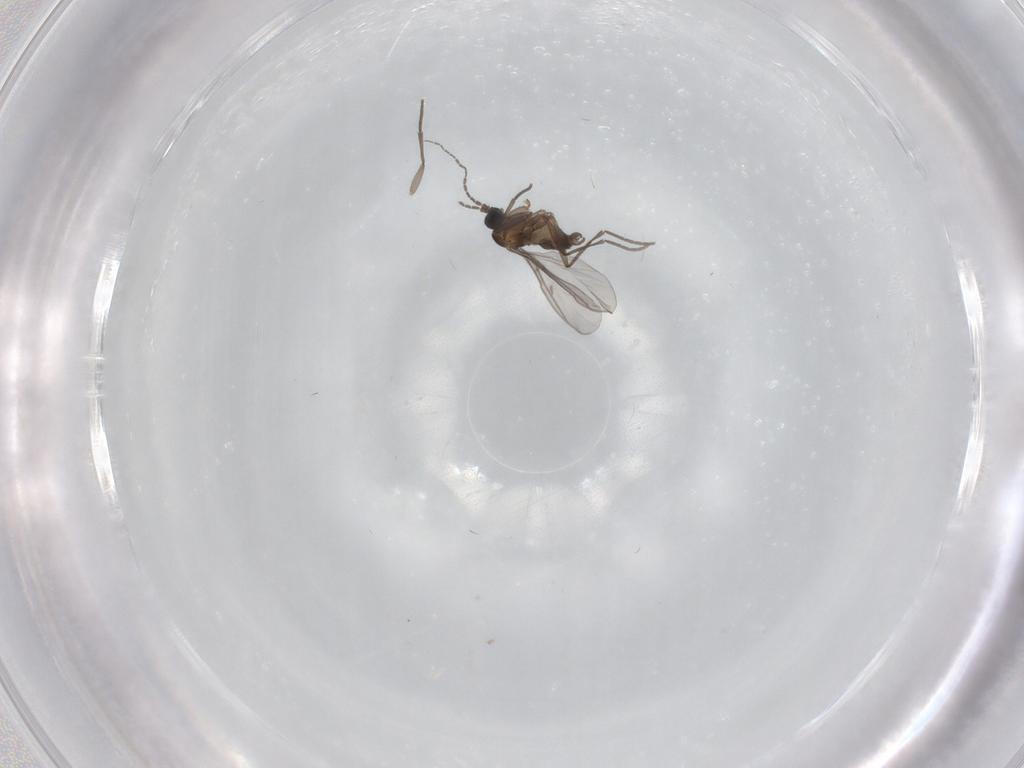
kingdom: Animalia
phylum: Arthropoda
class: Insecta
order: Diptera
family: Sciaridae
